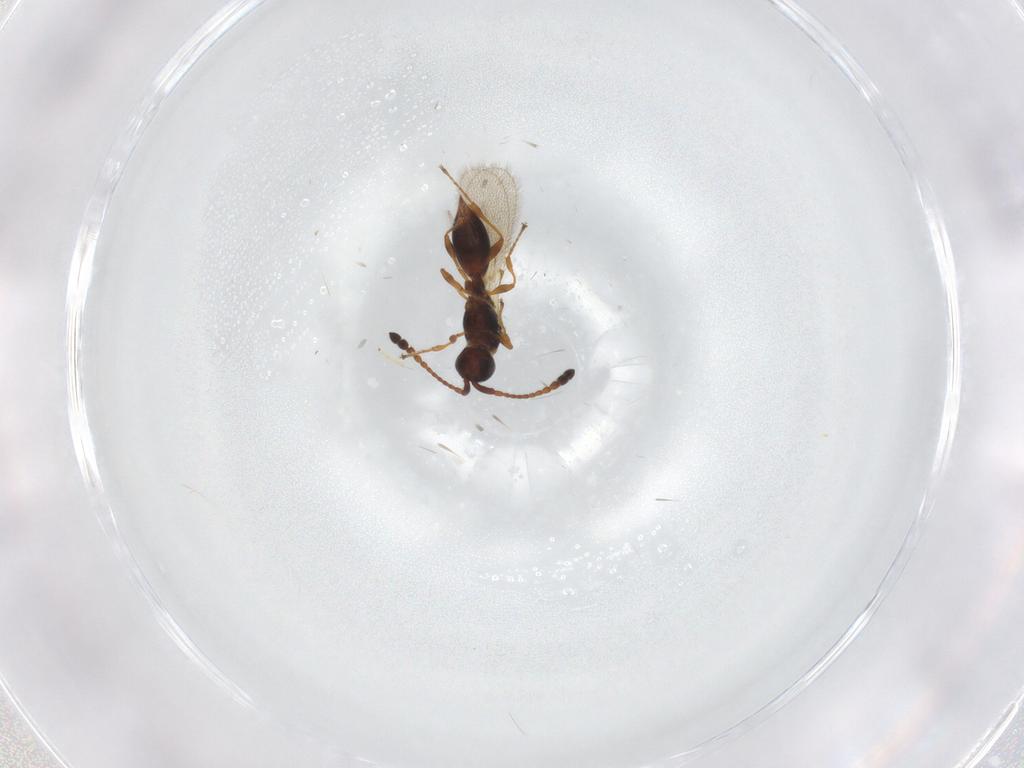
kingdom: Animalia
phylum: Arthropoda
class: Insecta
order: Hymenoptera
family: Diapriidae
